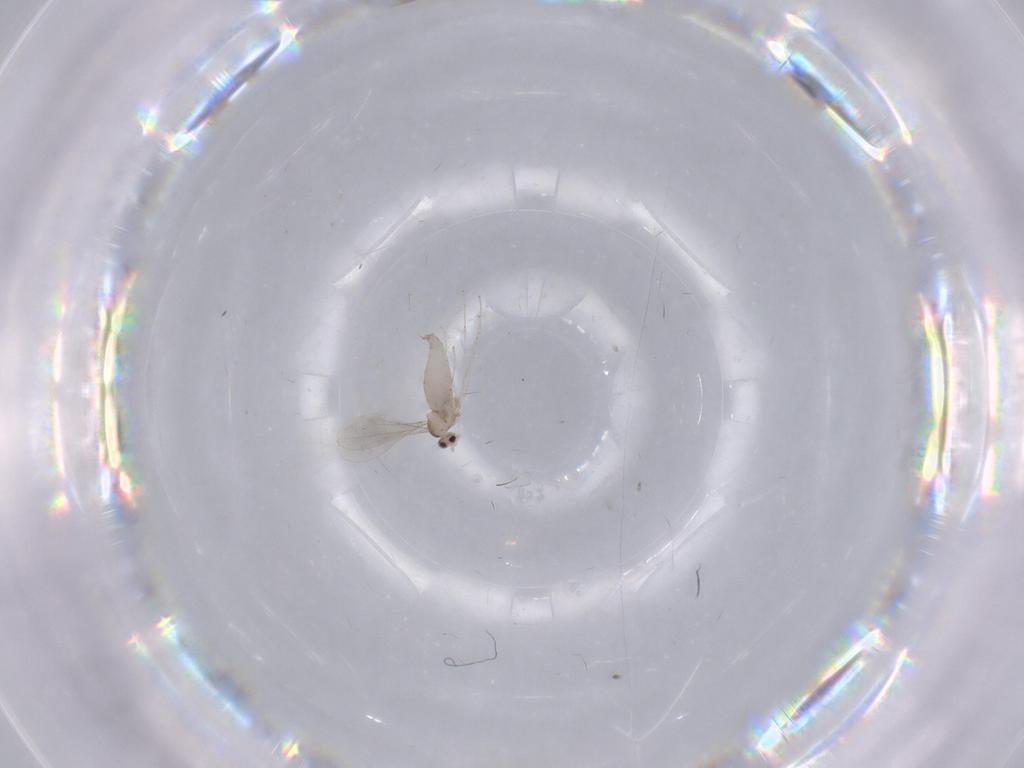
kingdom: Animalia
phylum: Arthropoda
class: Insecta
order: Diptera
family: Cecidomyiidae
